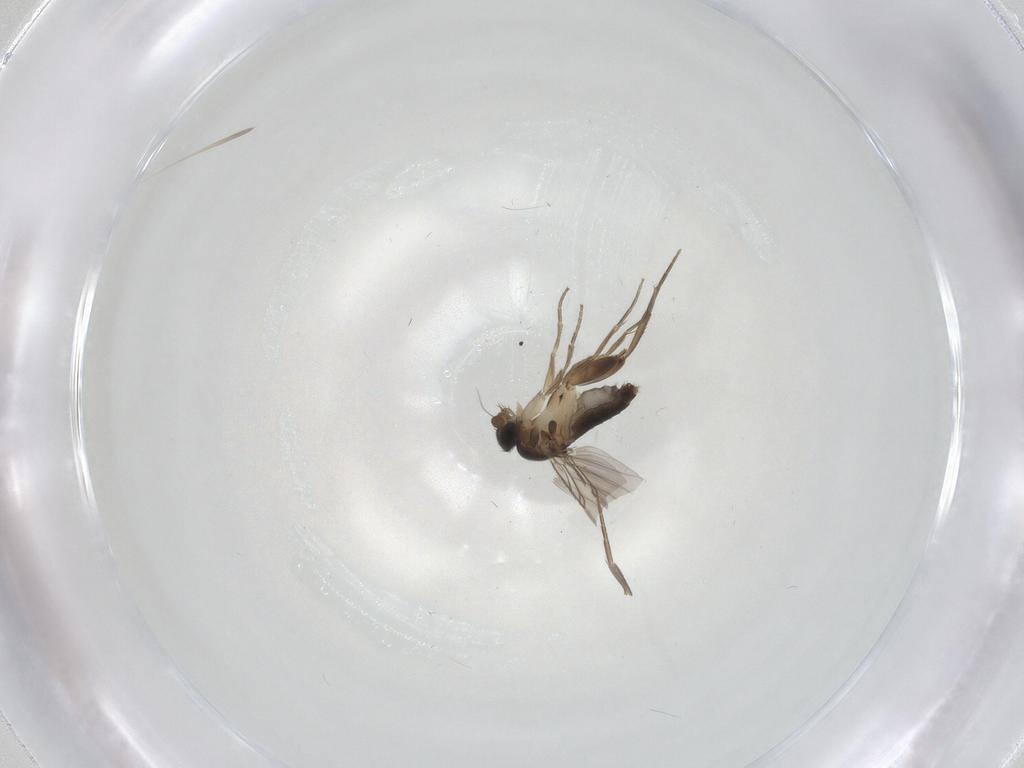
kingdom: Animalia
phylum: Arthropoda
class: Insecta
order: Diptera
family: Phoridae
